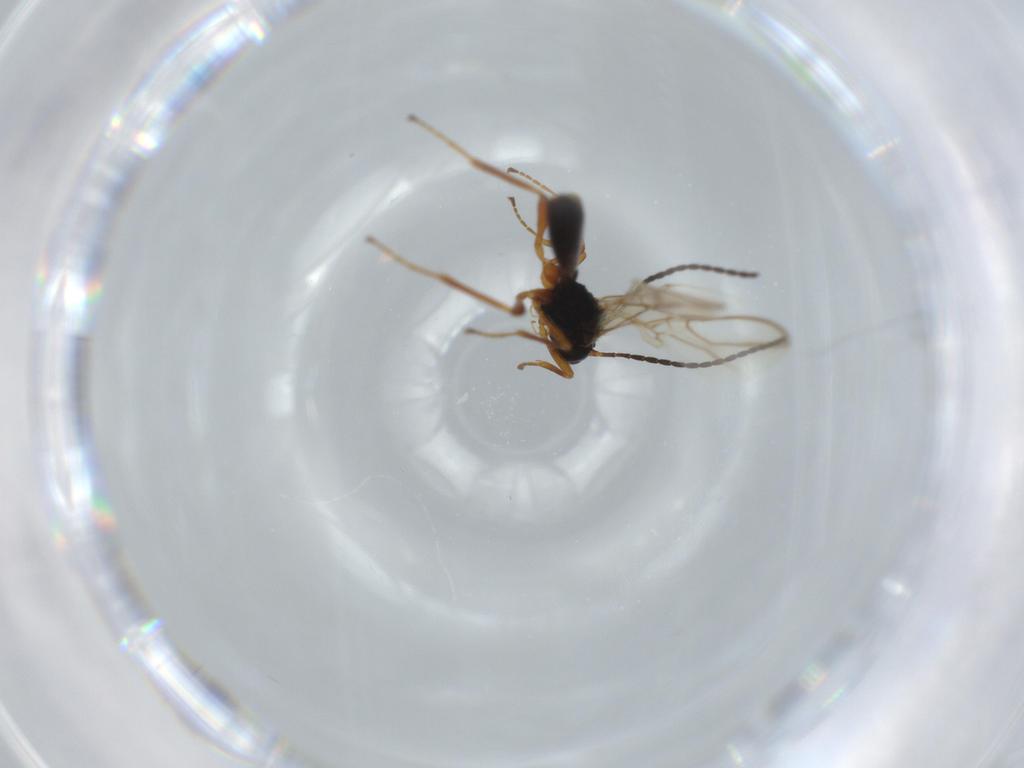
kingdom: Animalia
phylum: Arthropoda
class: Insecta
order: Hymenoptera
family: Braconidae
